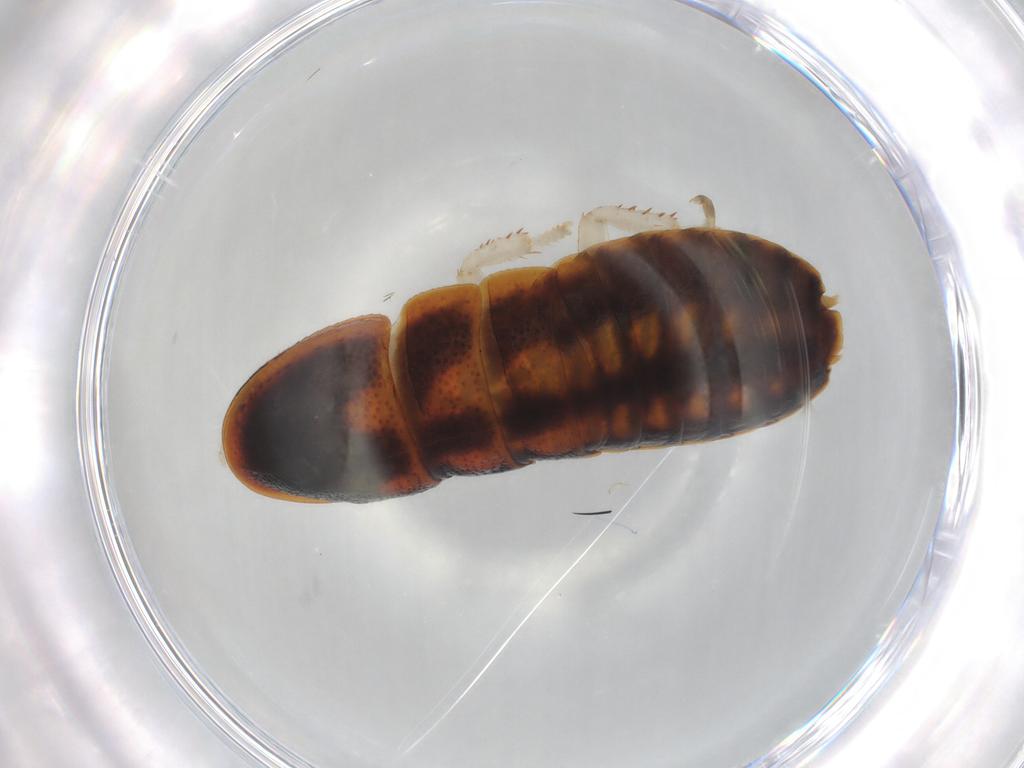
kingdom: Animalia
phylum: Arthropoda
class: Insecta
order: Blattodea
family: Blaberidae
